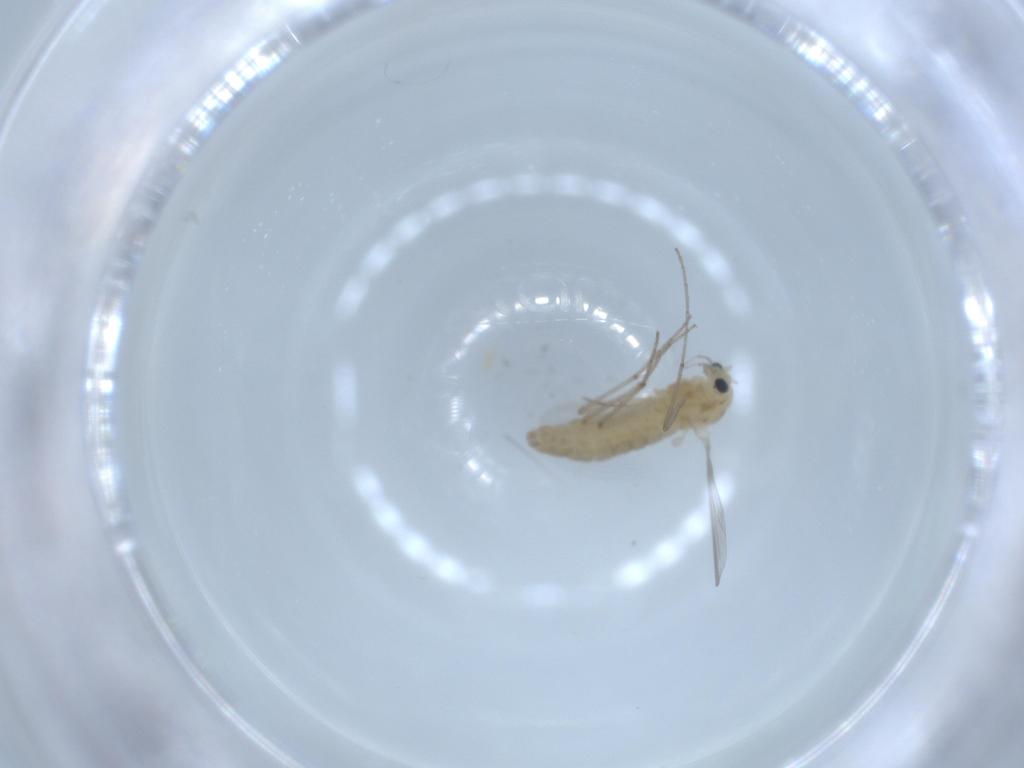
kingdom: Animalia
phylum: Arthropoda
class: Insecta
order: Diptera
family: Chironomidae
